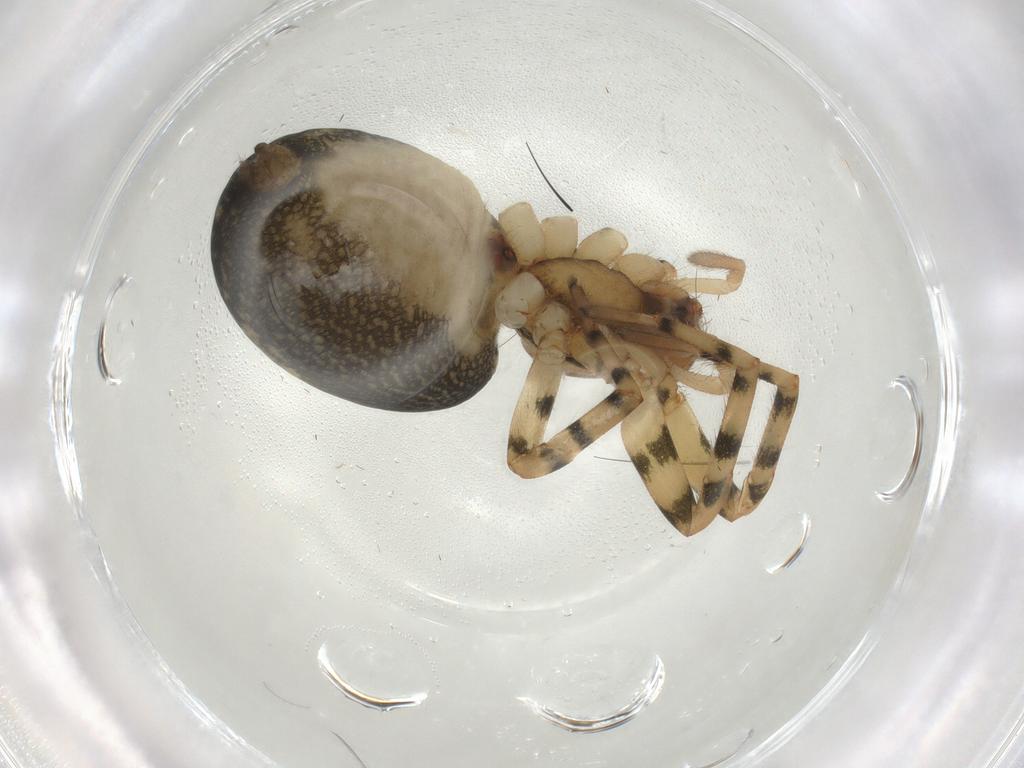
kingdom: Animalia
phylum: Arthropoda
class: Arachnida
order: Araneae
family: Trachelidae
